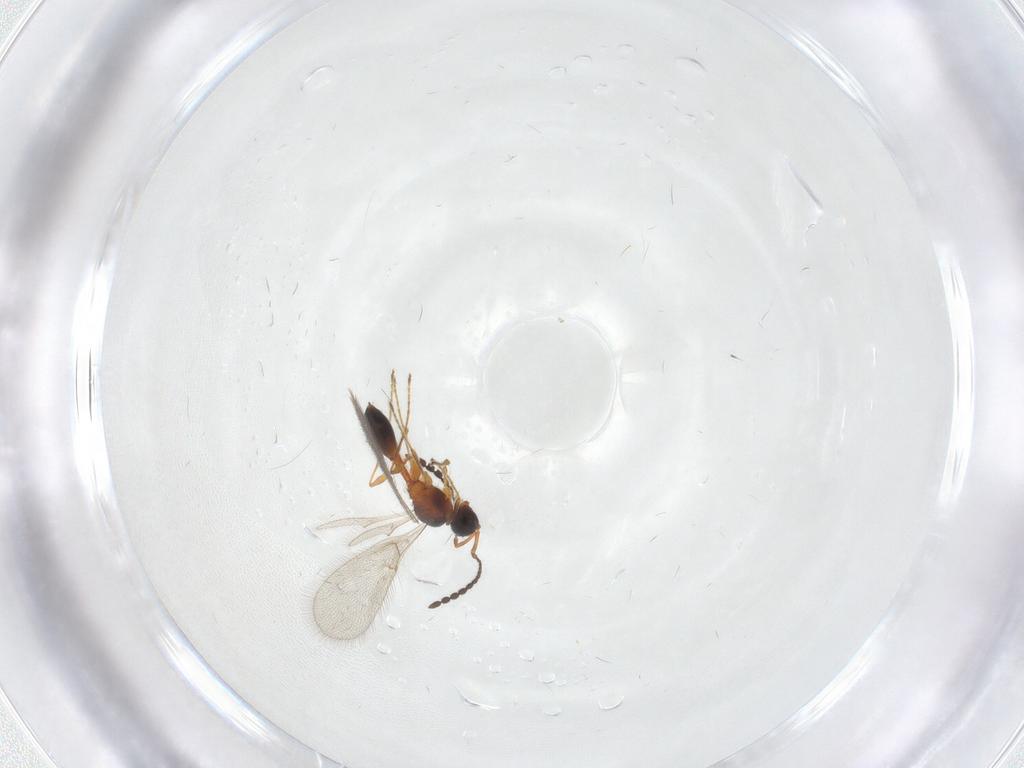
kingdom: Animalia
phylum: Arthropoda
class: Insecta
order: Hymenoptera
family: Diapriidae
